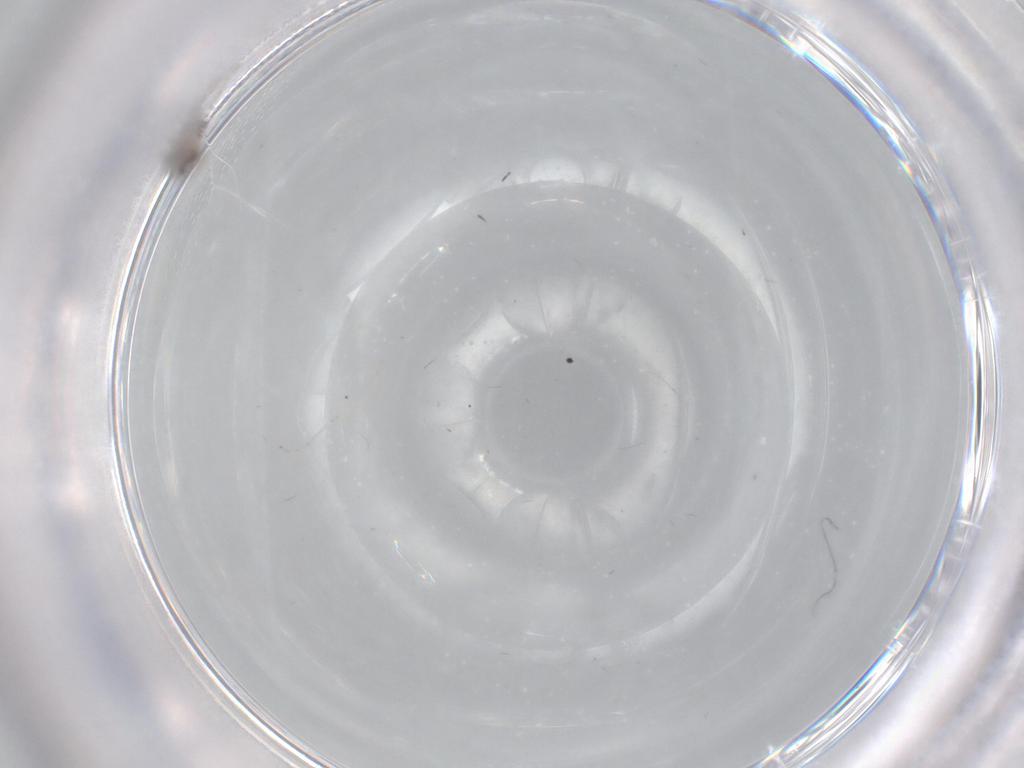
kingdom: Animalia
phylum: Arthropoda
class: Insecta
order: Diptera
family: Cecidomyiidae
